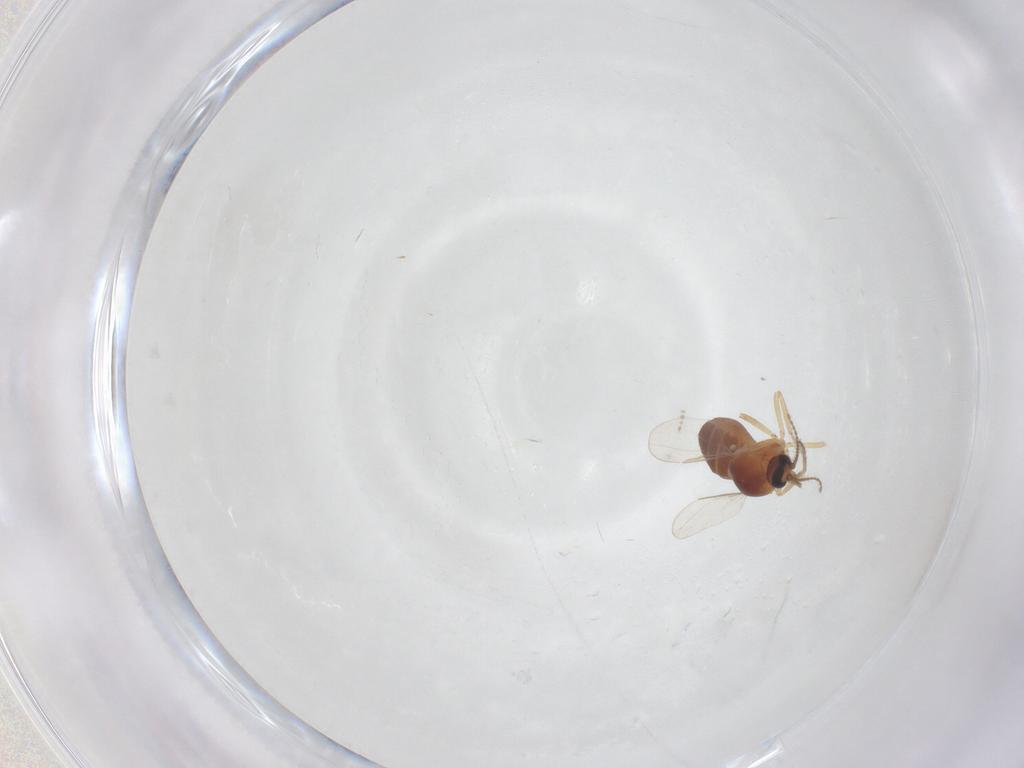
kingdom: Animalia
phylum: Arthropoda
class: Insecta
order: Diptera
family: Ceratopogonidae
